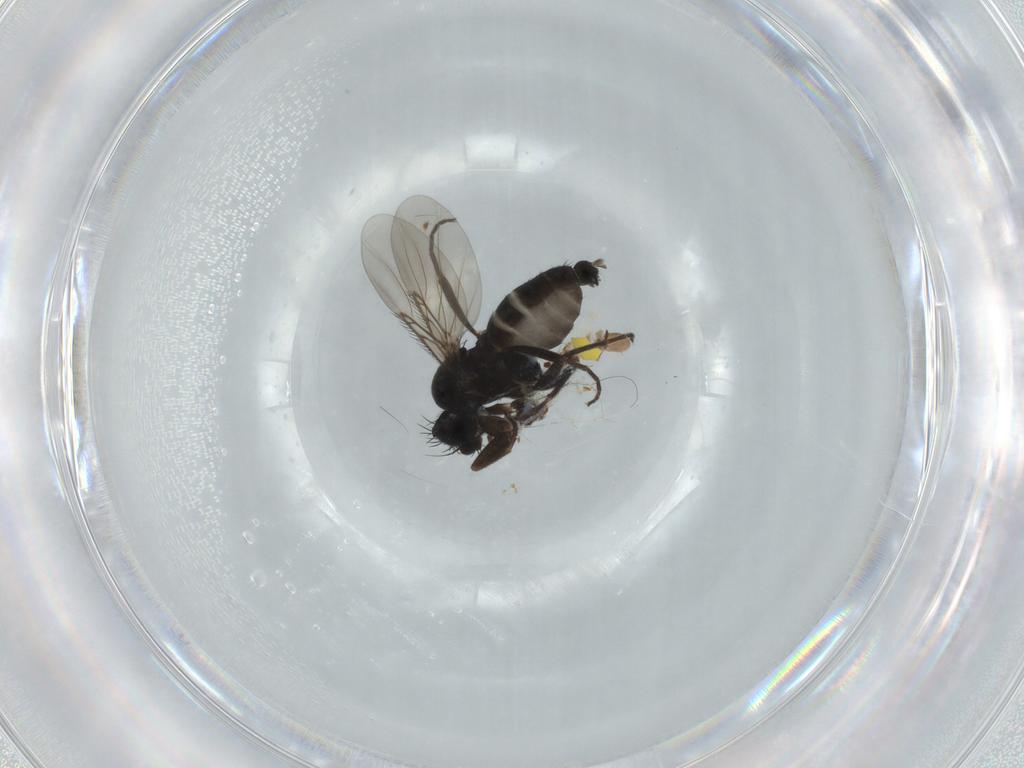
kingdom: Animalia
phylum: Arthropoda
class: Insecta
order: Diptera
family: Phoridae
